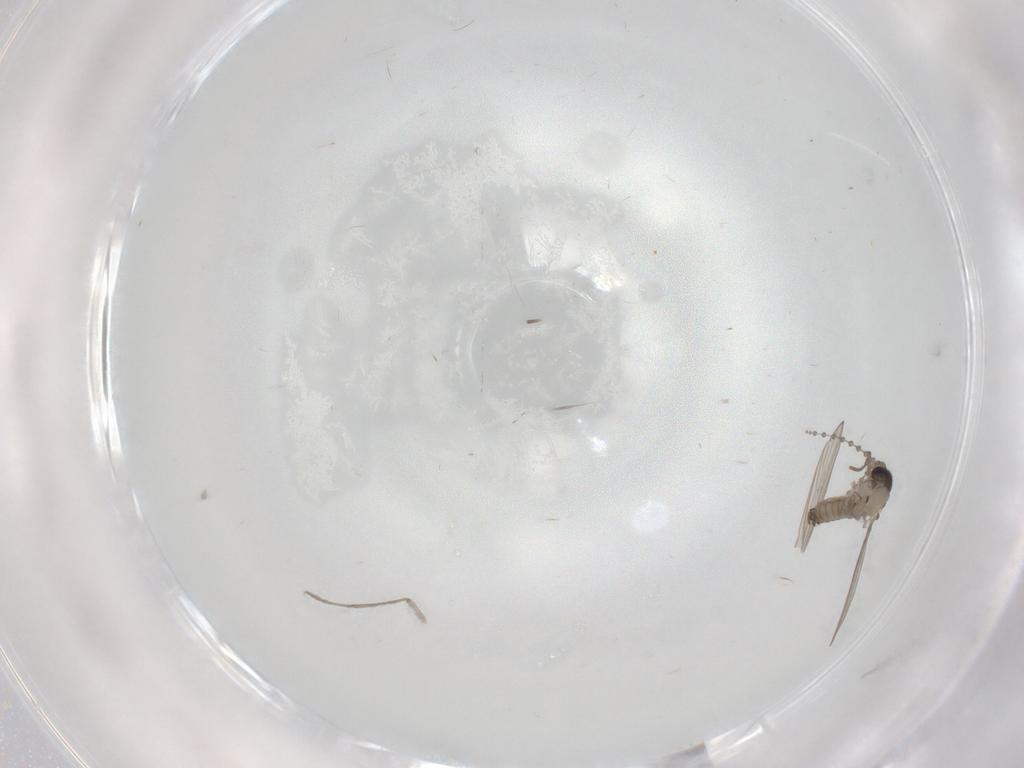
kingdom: Animalia
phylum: Arthropoda
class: Insecta
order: Diptera
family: Psychodidae
